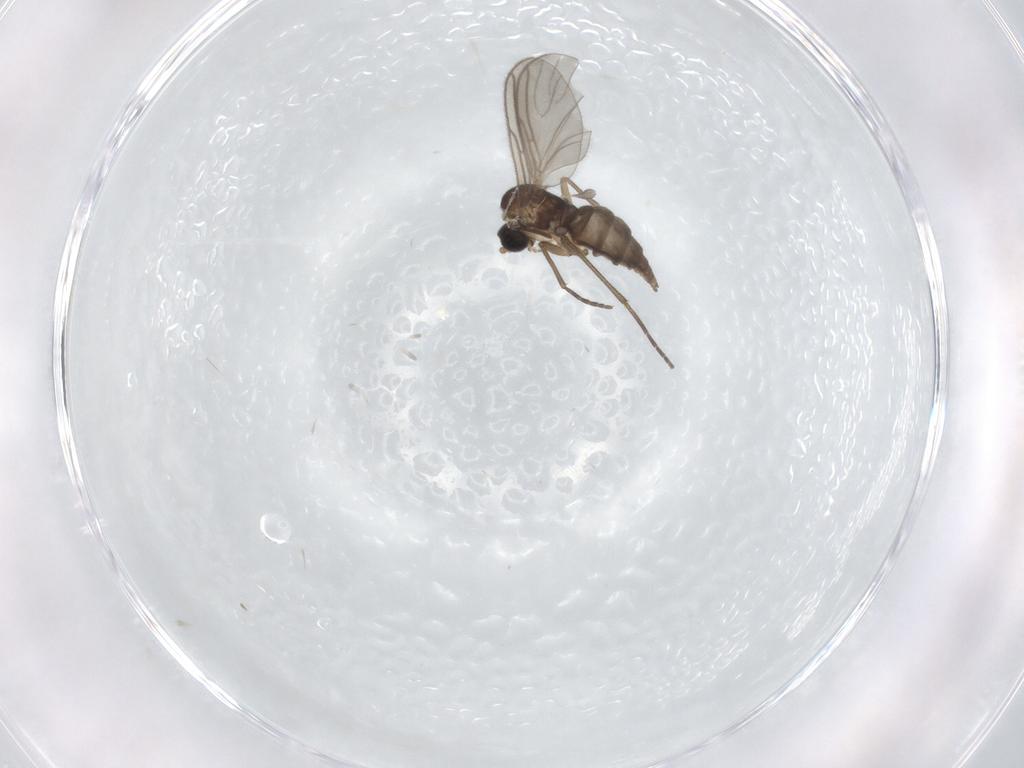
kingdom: Animalia
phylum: Arthropoda
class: Insecta
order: Diptera
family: Sciaridae
